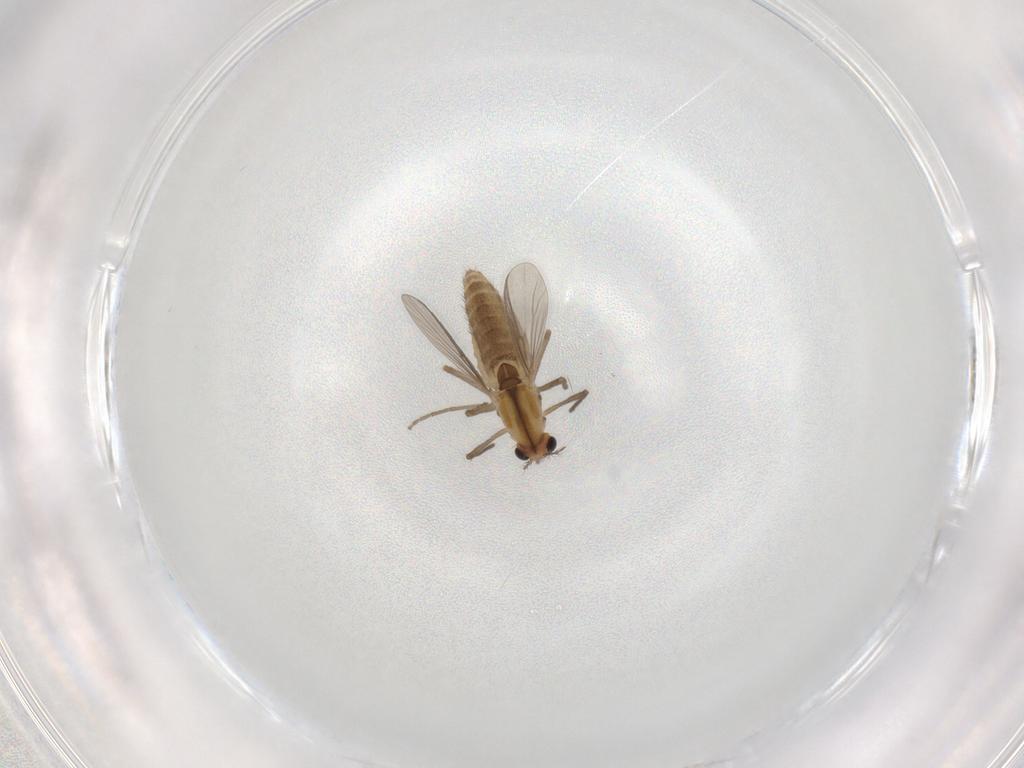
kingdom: Animalia
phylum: Arthropoda
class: Insecta
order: Diptera
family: Chironomidae
